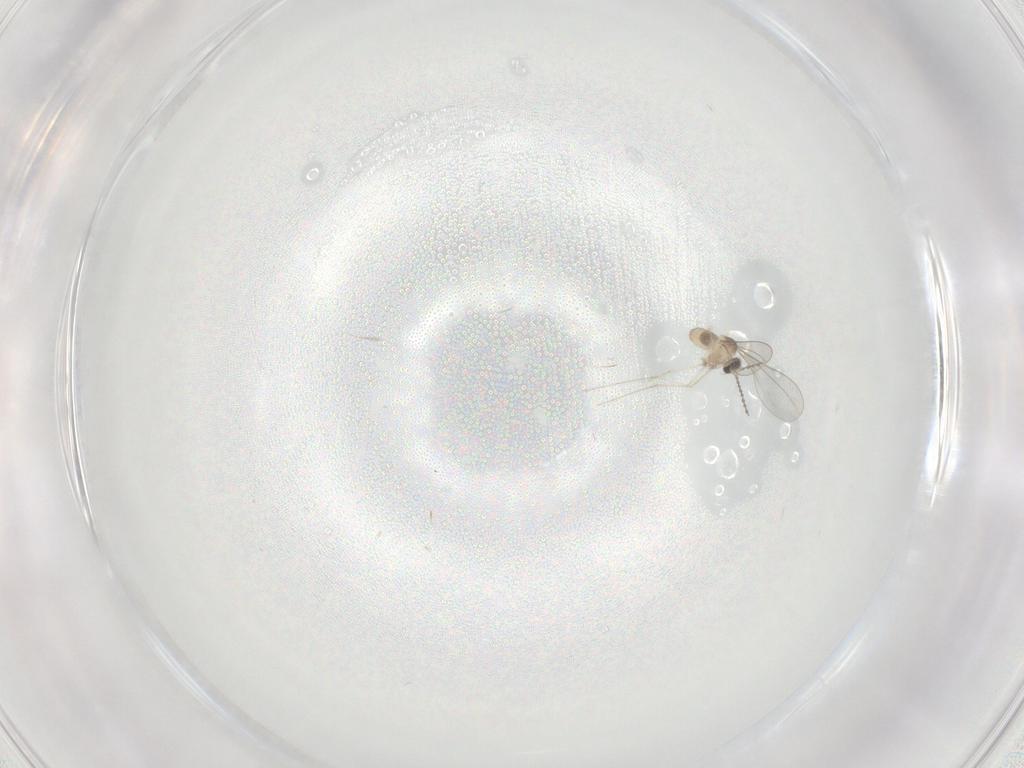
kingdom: Animalia
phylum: Arthropoda
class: Insecta
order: Diptera
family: Cecidomyiidae
